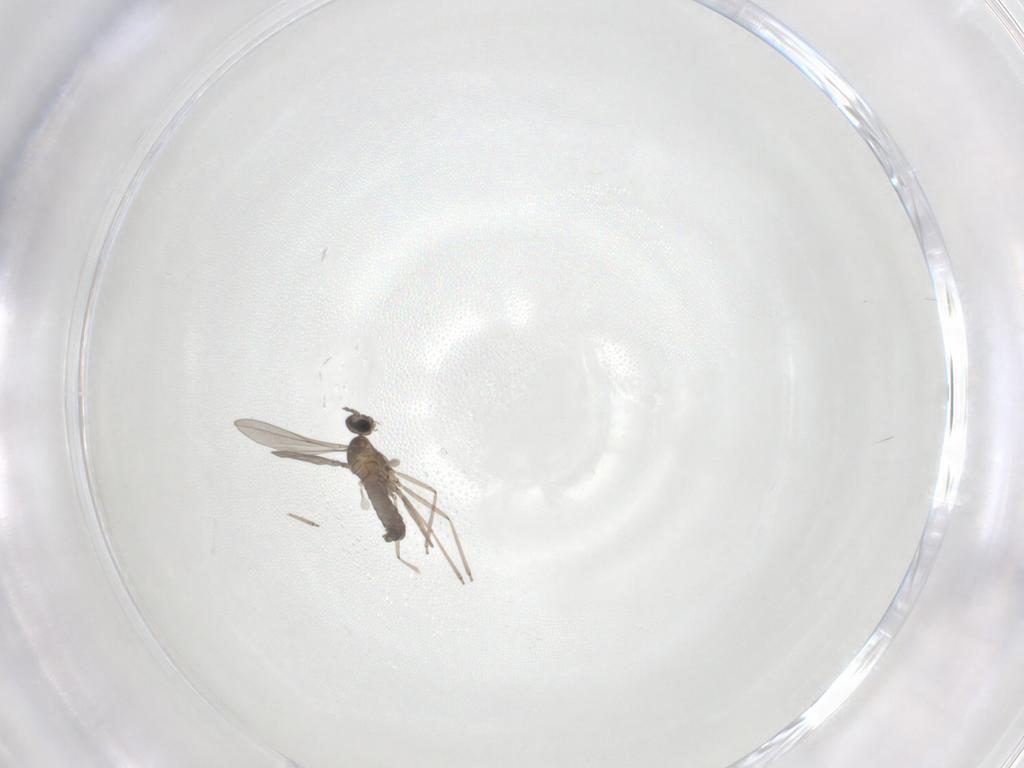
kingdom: Animalia
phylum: Arthropoda
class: Insecta
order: Diptera
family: Cecidomyiidae
